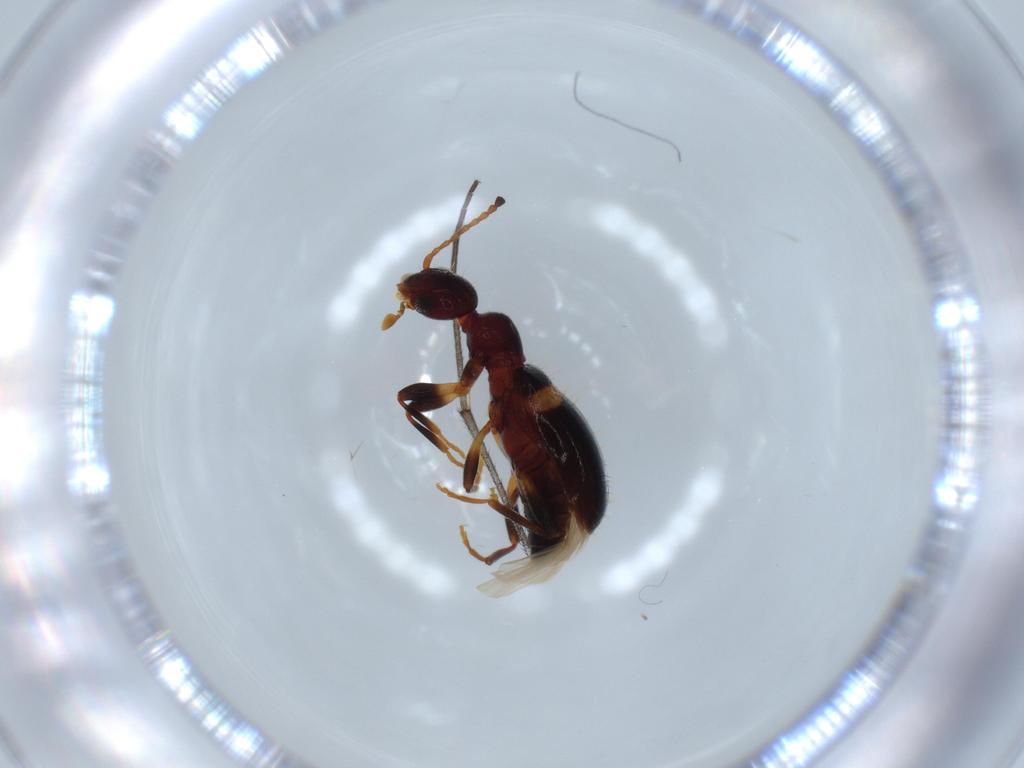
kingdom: Animalia
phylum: Arthropoda
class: Insecta
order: Coleoptera
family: Anthicidae
